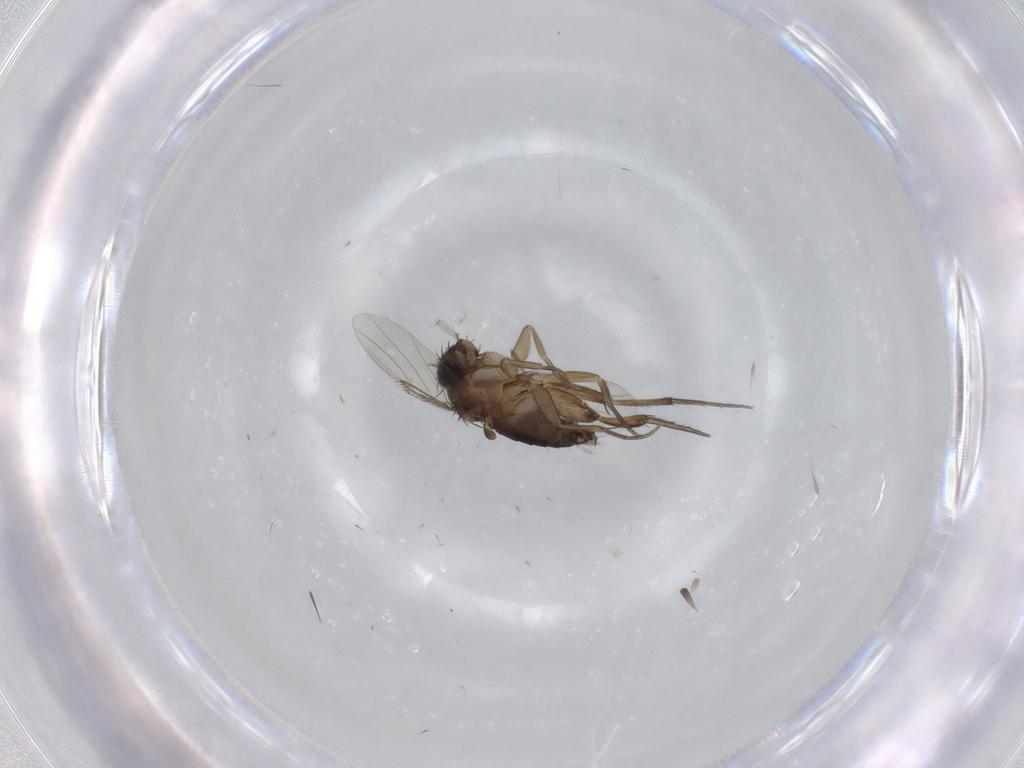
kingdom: Animalia
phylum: Arthropoda
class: Insecta
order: Diptera
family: Phoridae
